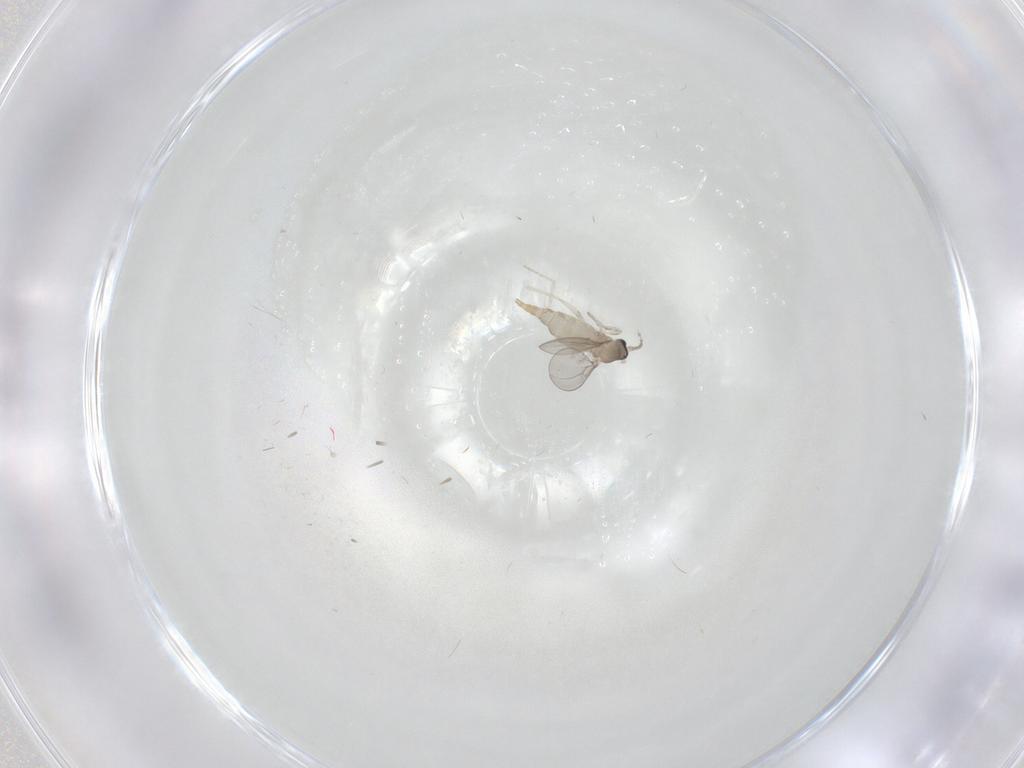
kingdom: Animalia
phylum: Arthropoda
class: Insecta
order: Diptera
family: Cecidomyiidae
